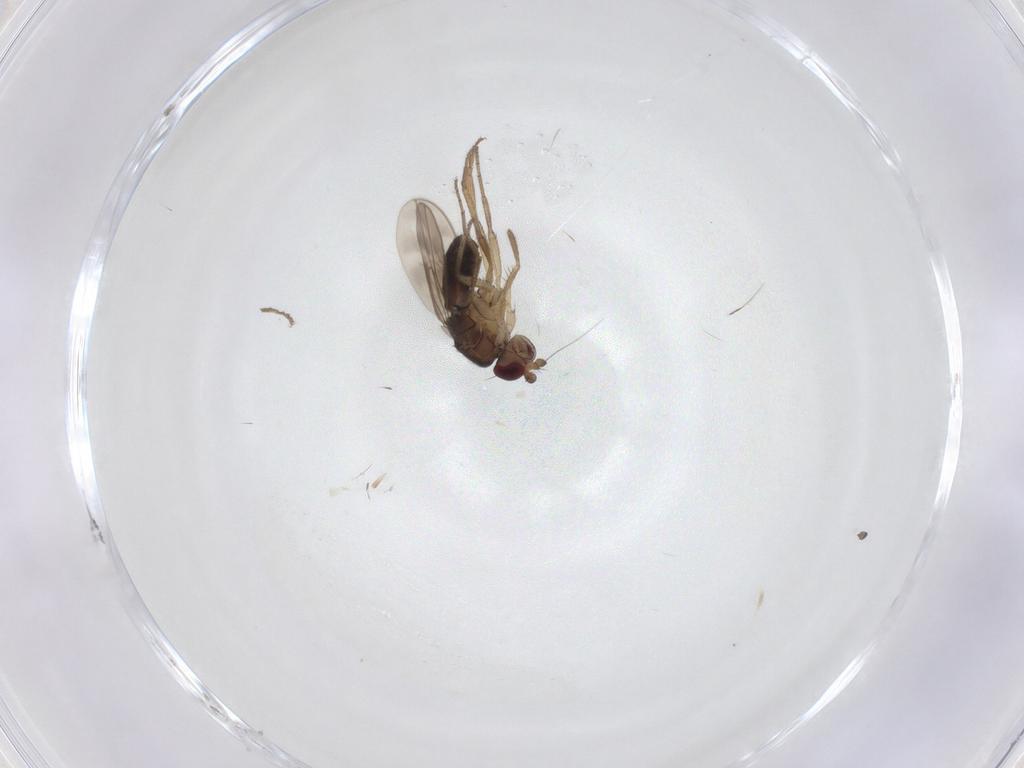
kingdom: Animalia
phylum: Arthropoda
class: Insecta
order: Diptera
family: Sphaeroceridae
